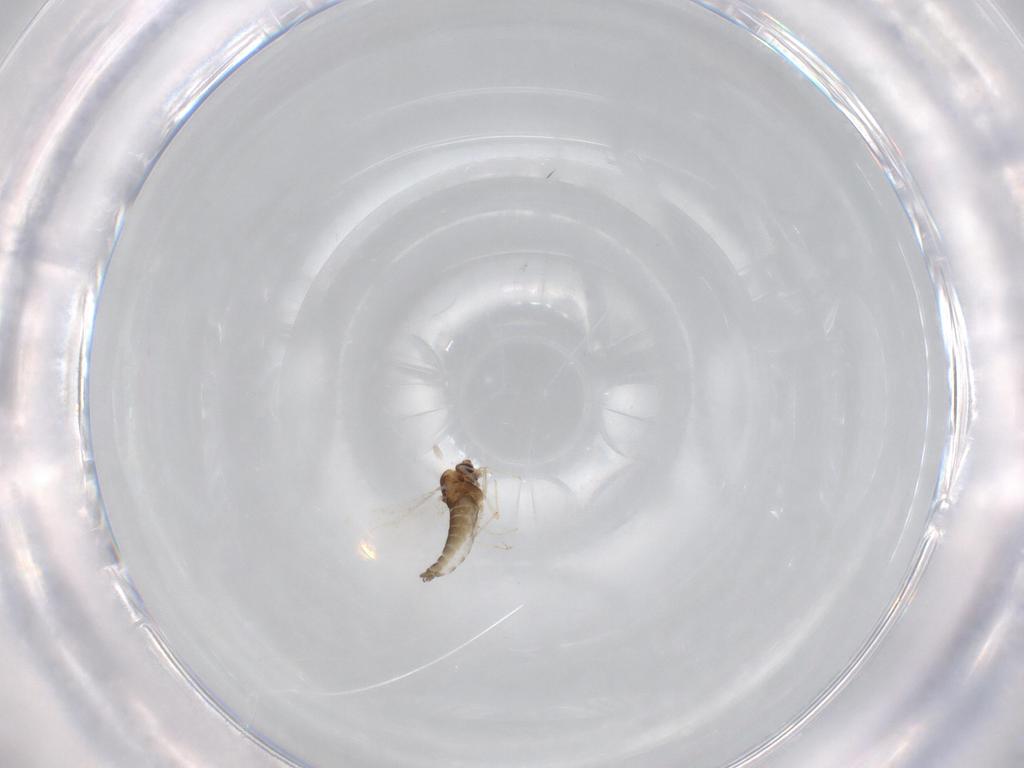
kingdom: Animalia
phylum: Arthropoda
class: Insecta
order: Diptera
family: Chironomidae
